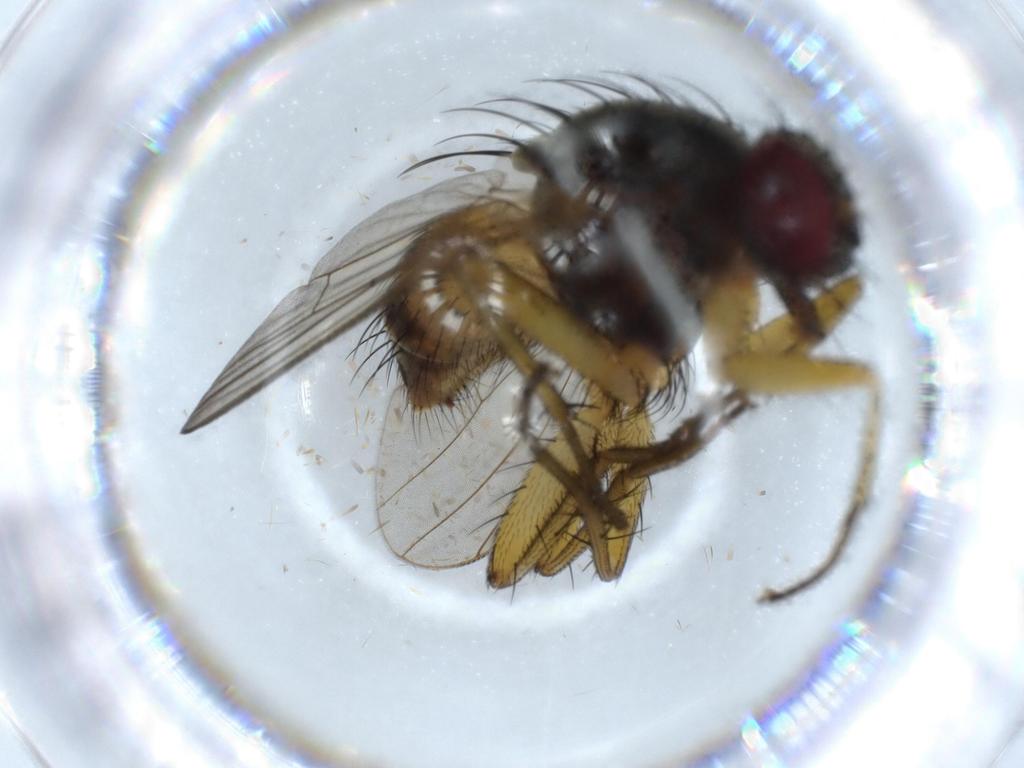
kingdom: Animalia
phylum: Arthropoda
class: Insecta
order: Diptera
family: Muscidae
